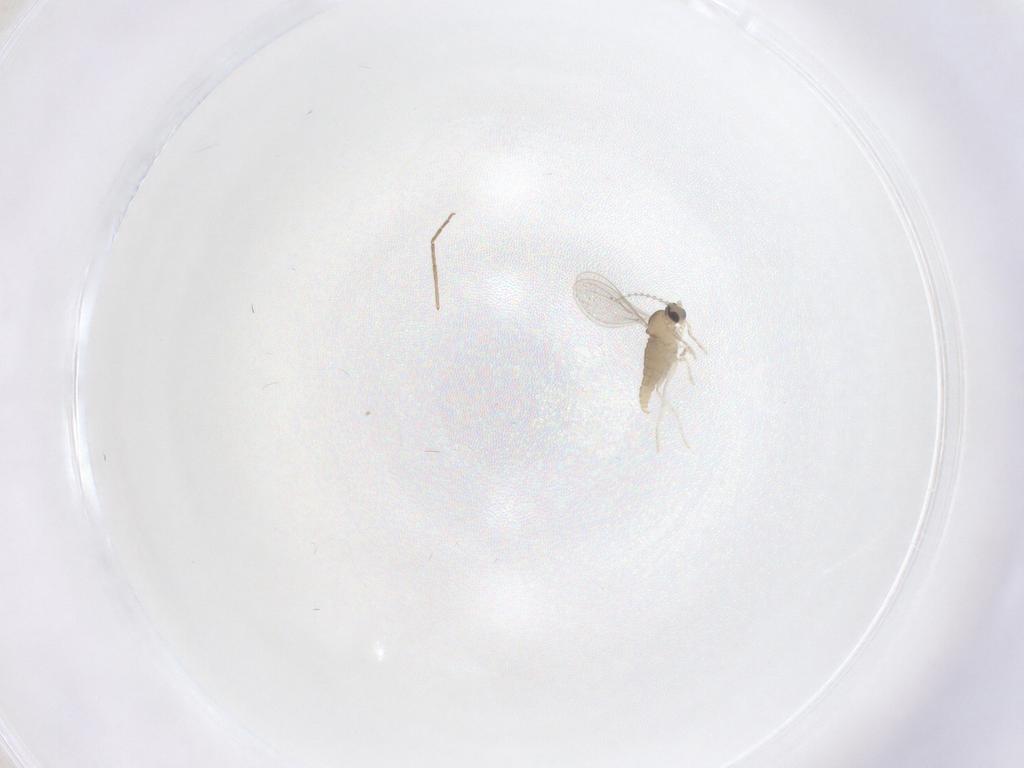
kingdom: Animalia
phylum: Arthropoda
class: Insecta
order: Diptera
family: Cecidomyiidae
